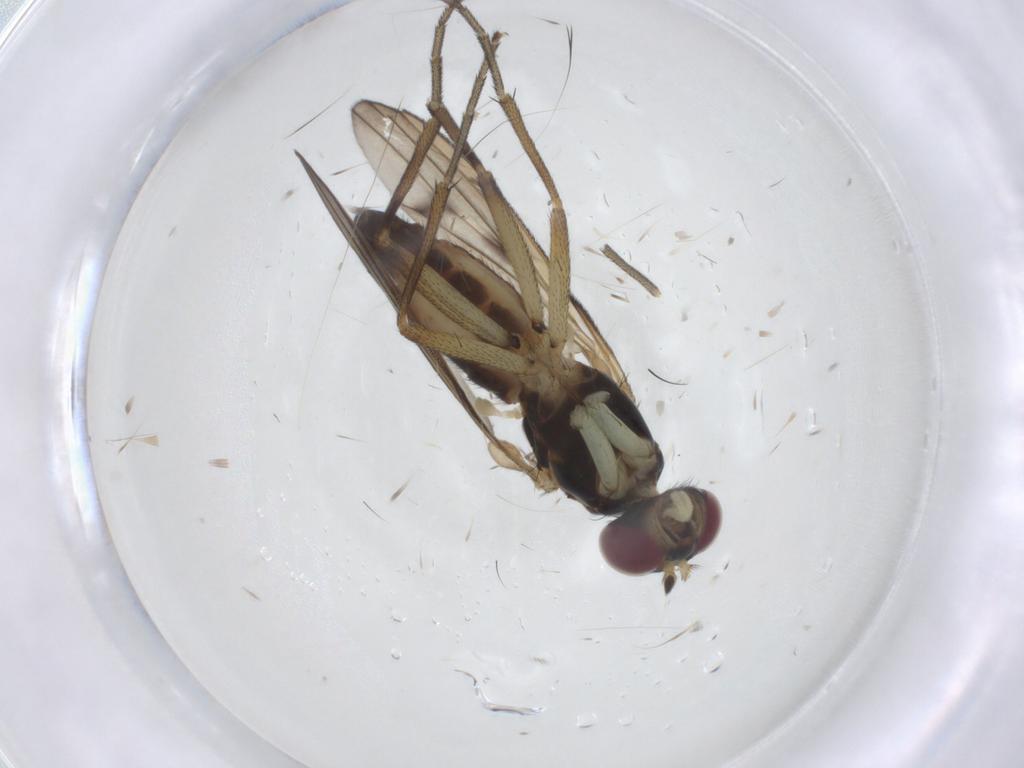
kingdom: Animalia
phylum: Arthropoda
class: Insecta
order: Diptera
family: Sciomyzidae
